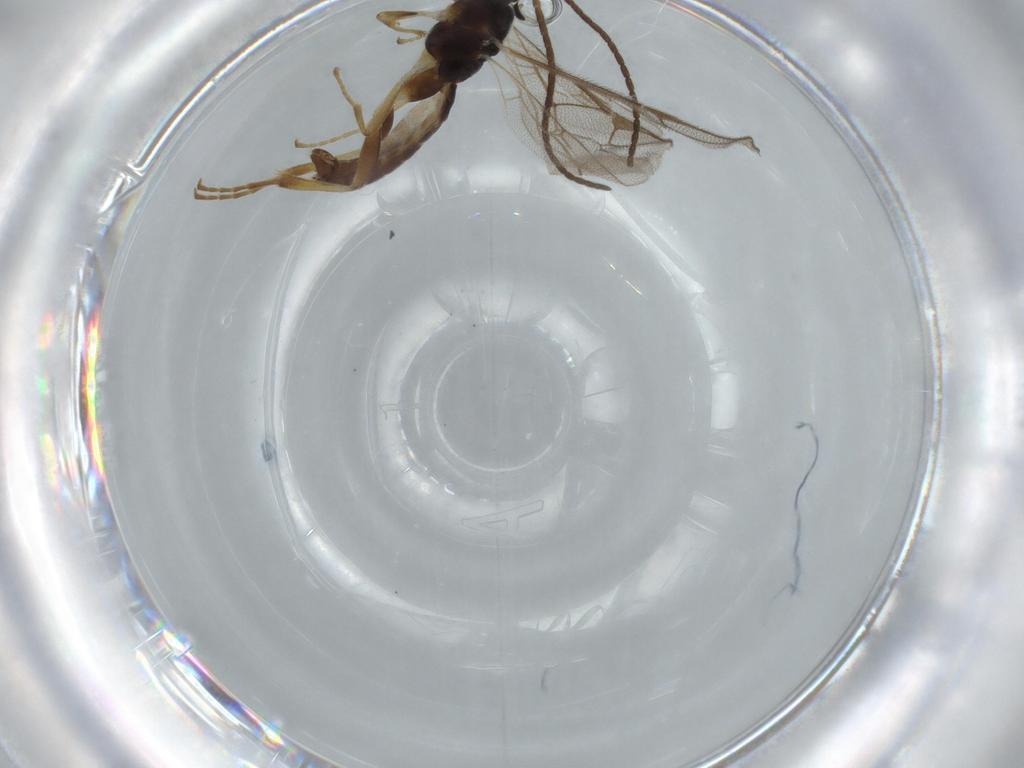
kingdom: Animalia
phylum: Arthropoda
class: Insecta
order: Hymenoptera
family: Ichneumonidae
